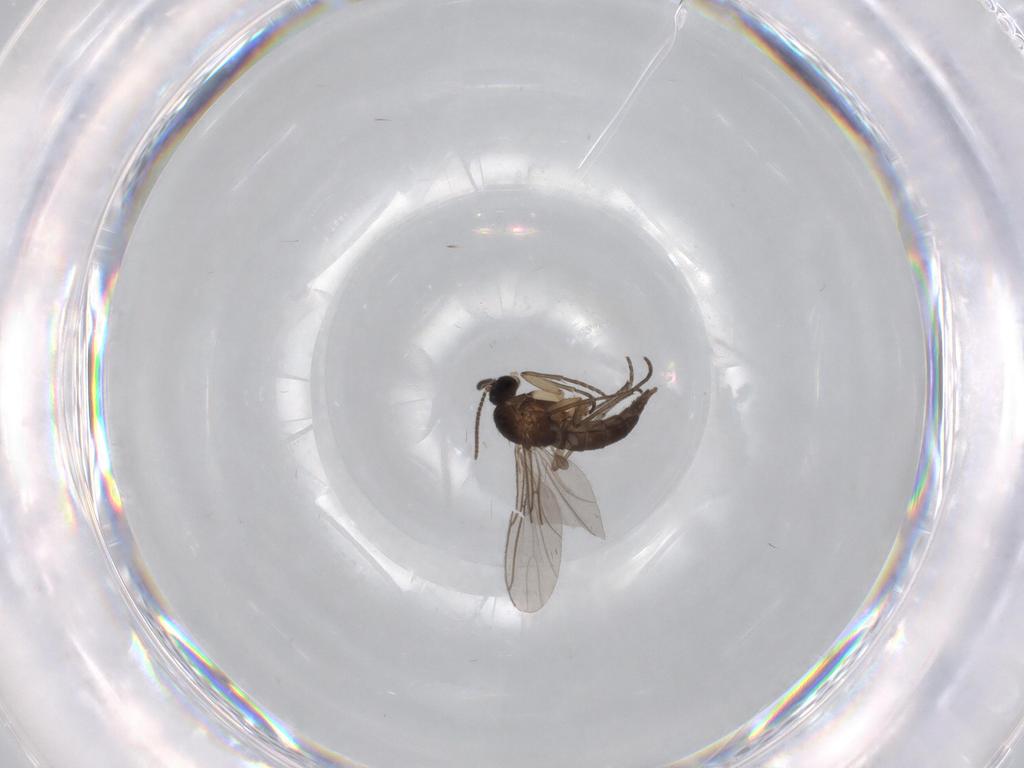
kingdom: Animalia
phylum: Arthropoda
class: Insecta
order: Diptera
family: Sciaridae
